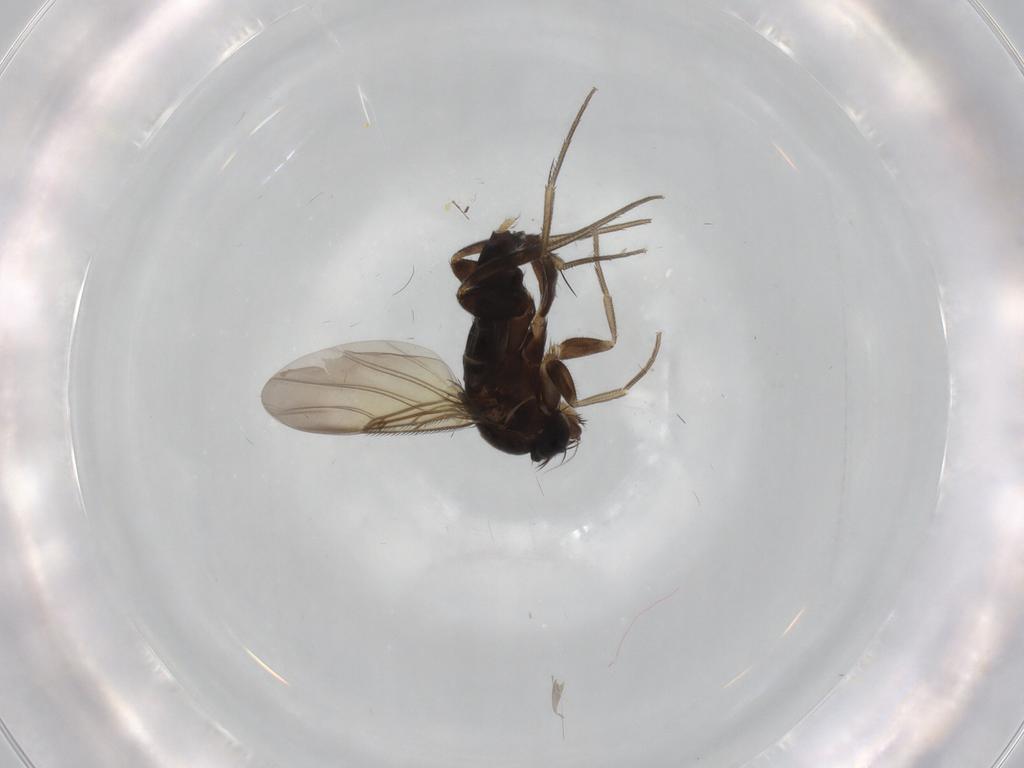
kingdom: Animalia
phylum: Arthropoda
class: Insecta
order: Diptera
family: Phoridae
